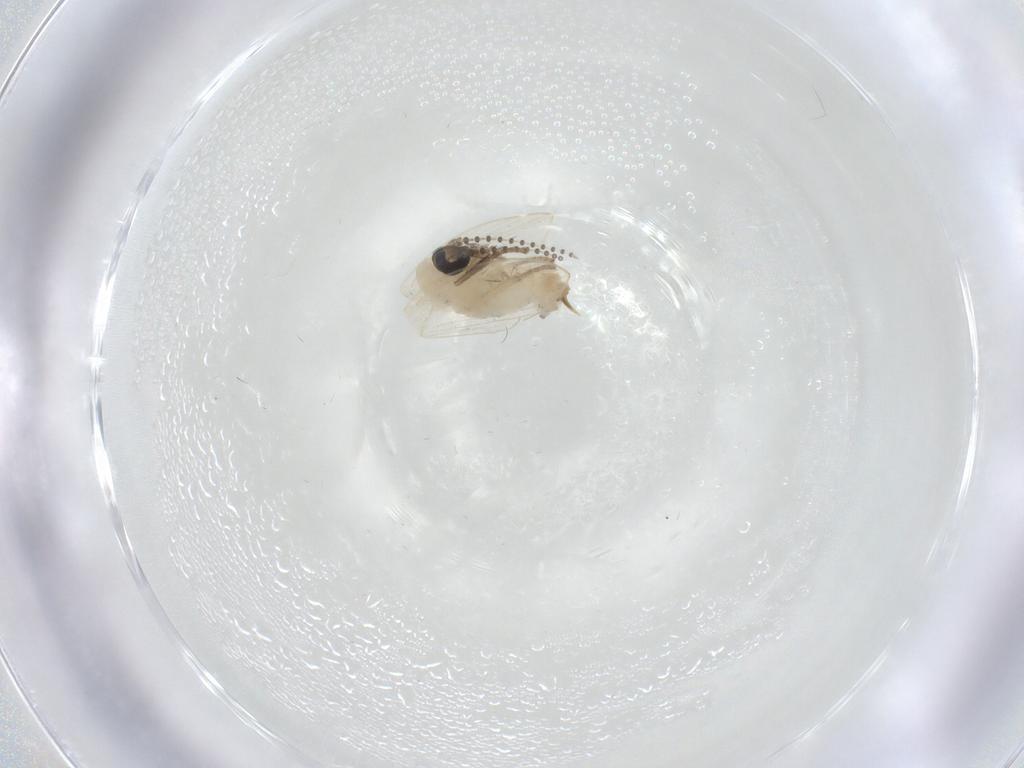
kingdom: Animalia
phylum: Arthropoda
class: Insecta
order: Diptera
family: Psychodidae
